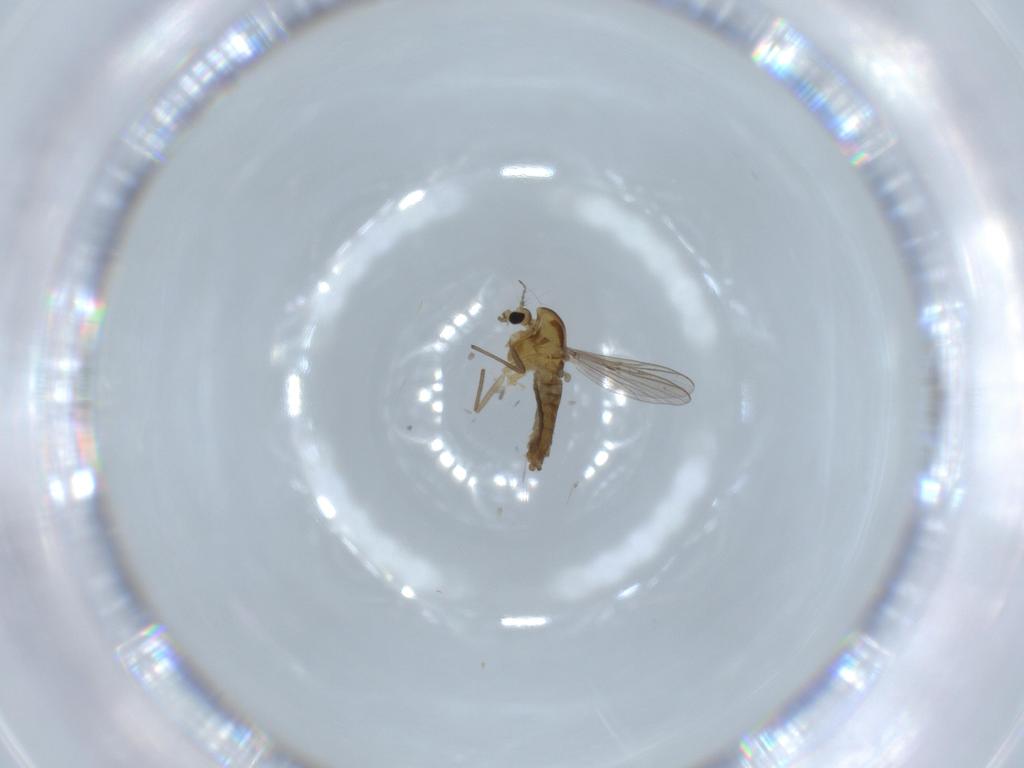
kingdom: Animalia
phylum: Arthropoda
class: Insecta
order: Diptera
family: Chironomidae
